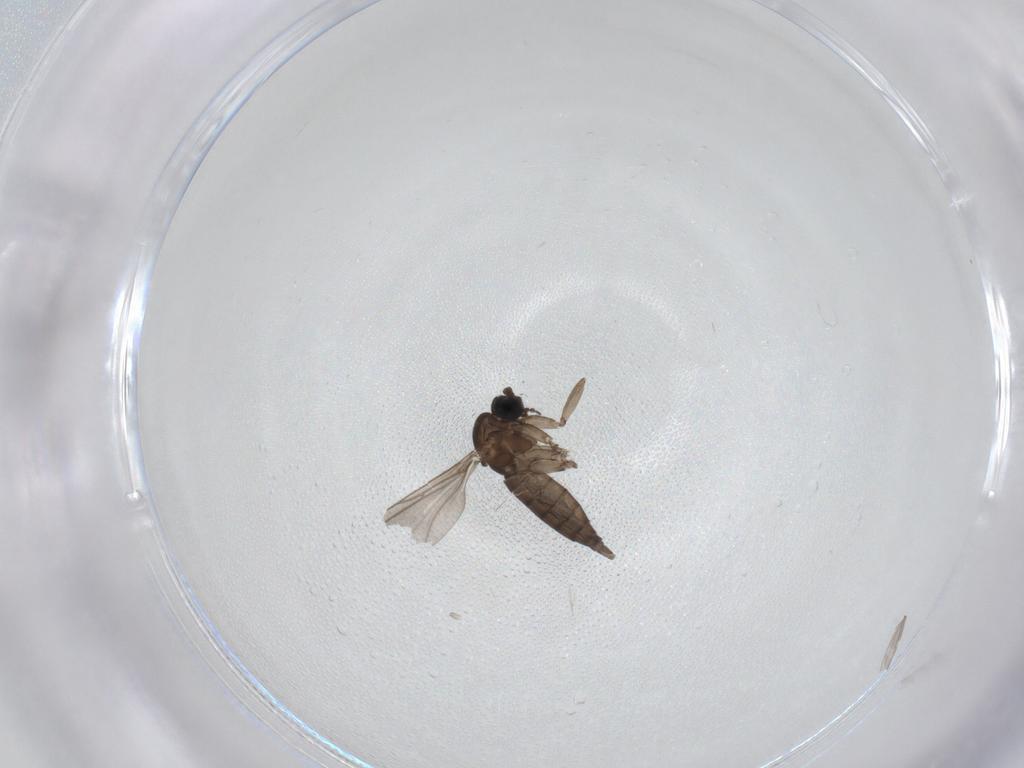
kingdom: Animalia
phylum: Arthropoda
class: Insecta
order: Diptera
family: Sciaridae
